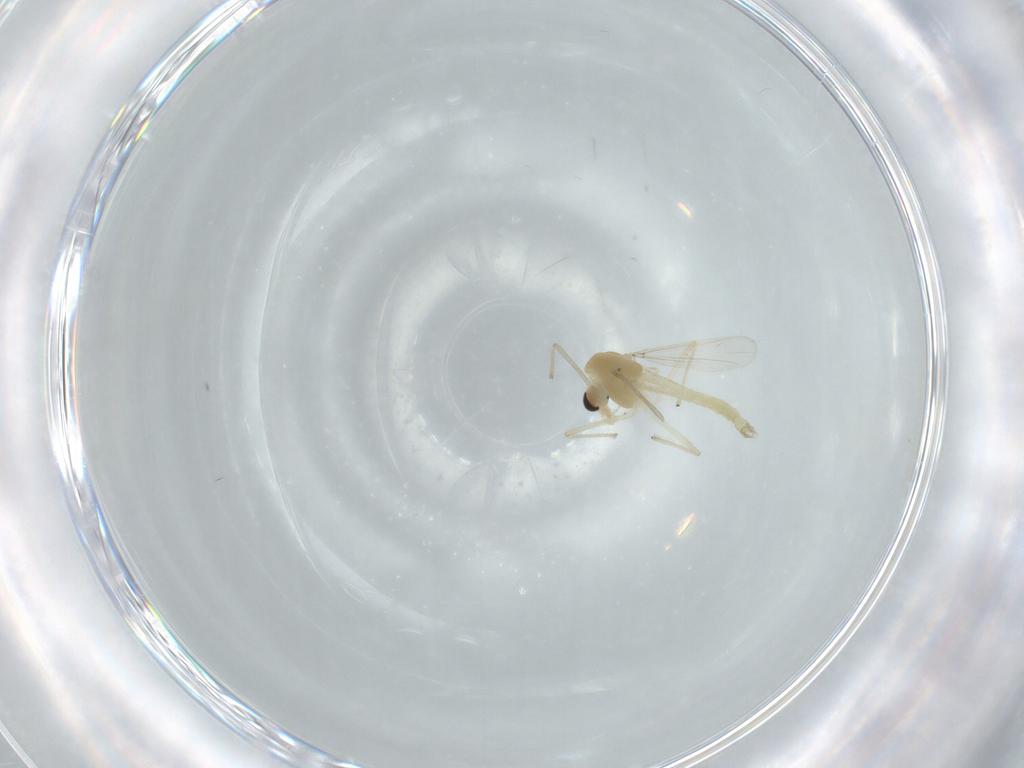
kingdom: Animalia
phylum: Arthropoda
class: Insecta
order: Diptera
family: Chironomidae
